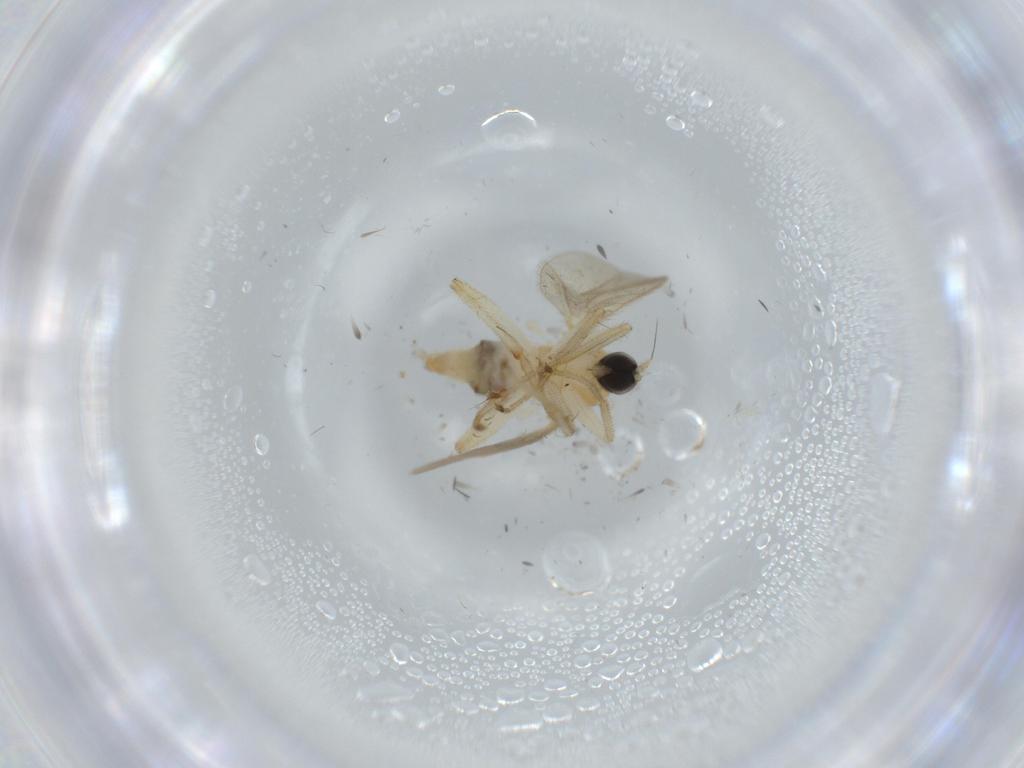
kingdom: Animalia
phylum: Arthropoda
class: Insecta
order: Diptera
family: Hybotidae
